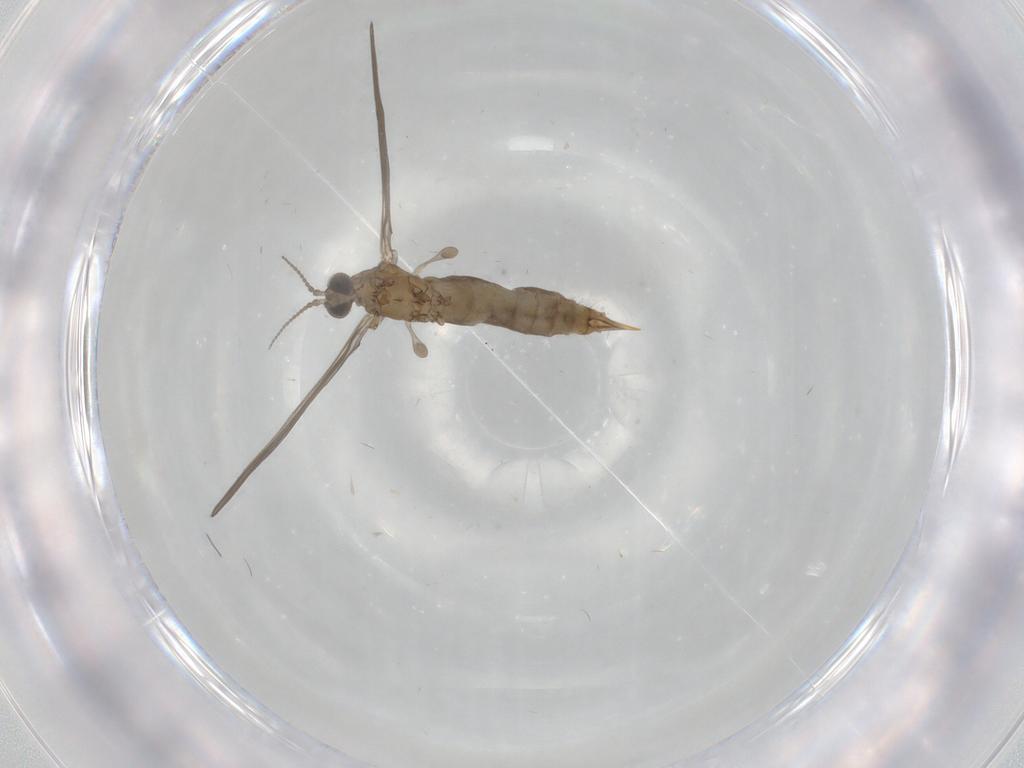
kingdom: Animalia
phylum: Arthropoda
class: Insecta
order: Diptera
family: Limoniidae
